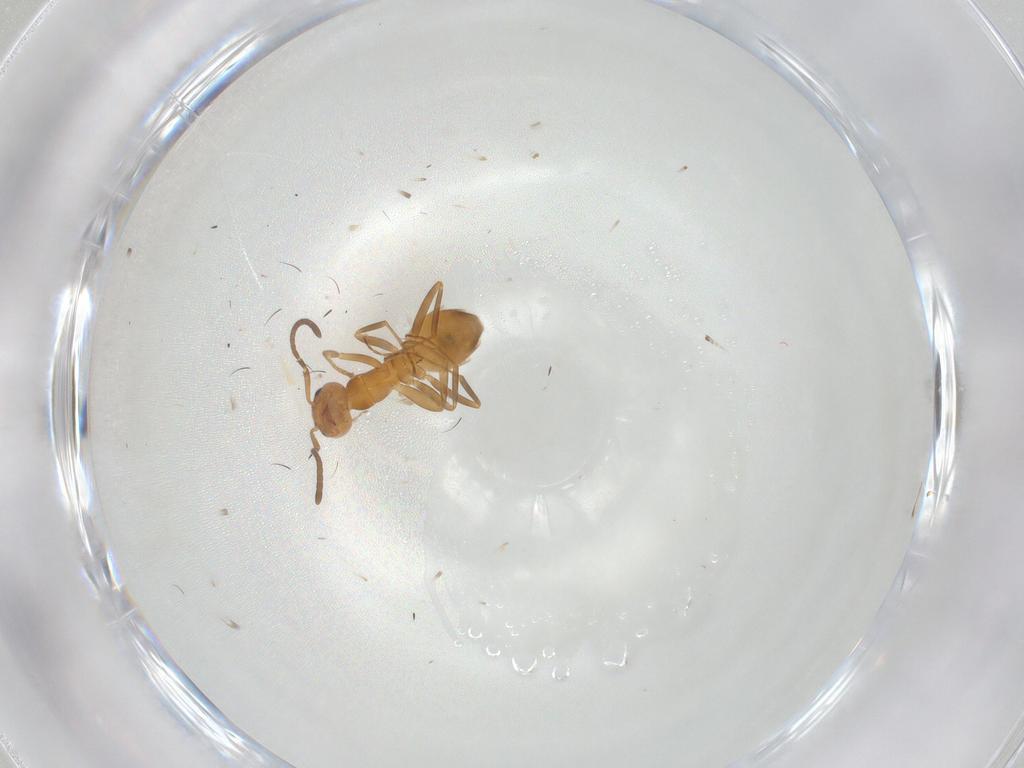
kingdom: Animalia
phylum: Arthropoda
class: Insecta
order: Hymenoptera
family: Formicidae
